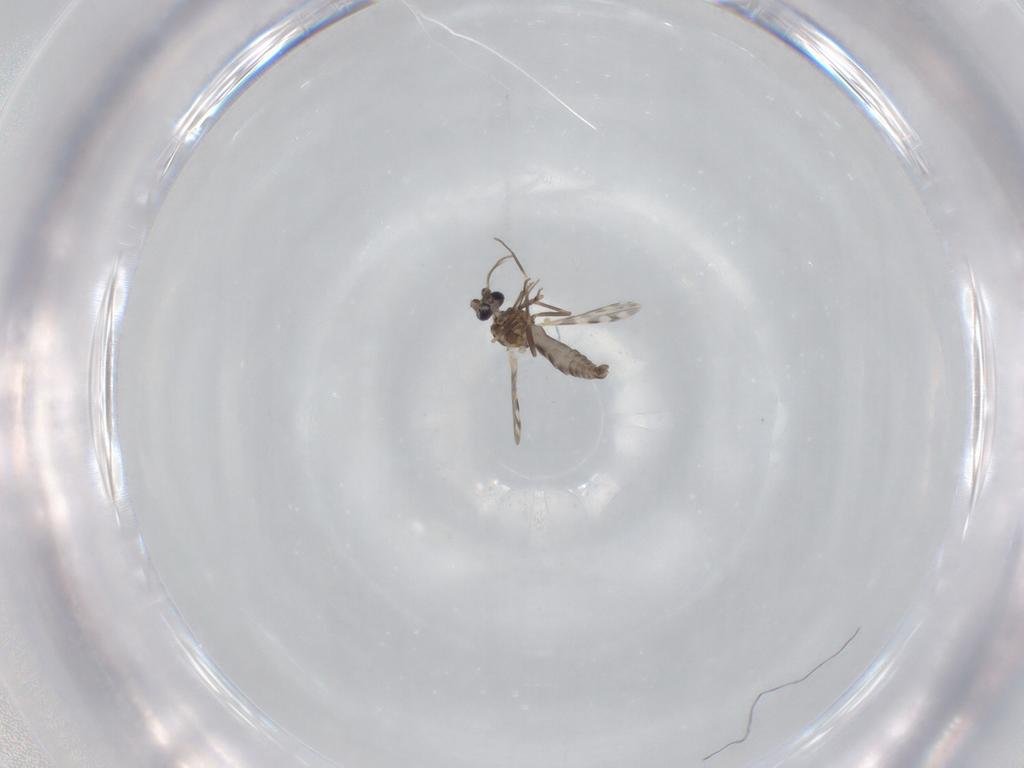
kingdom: Animalia
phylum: Arthropoda
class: Insecta
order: Diptera
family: Ceratopogonidae
